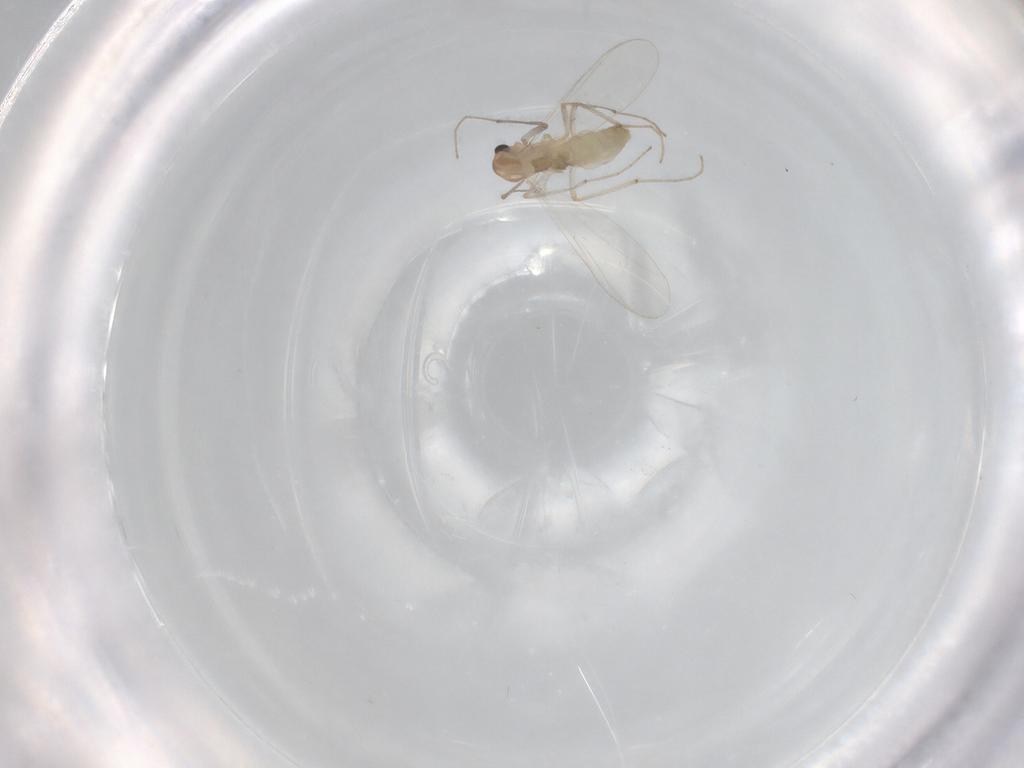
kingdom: Animalia
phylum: Arthropoda
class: Insecta
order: Diptera
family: Chironomidae
